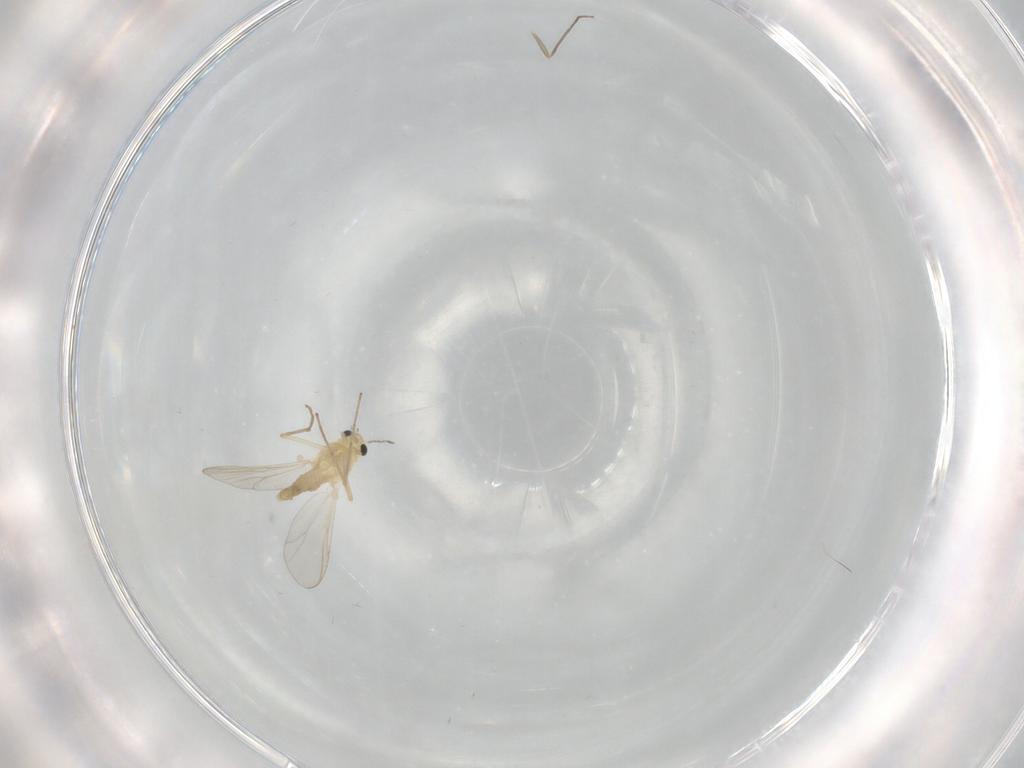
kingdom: Animalia
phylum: Arthropoda
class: Insecta
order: Diptera
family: Chironomidae
